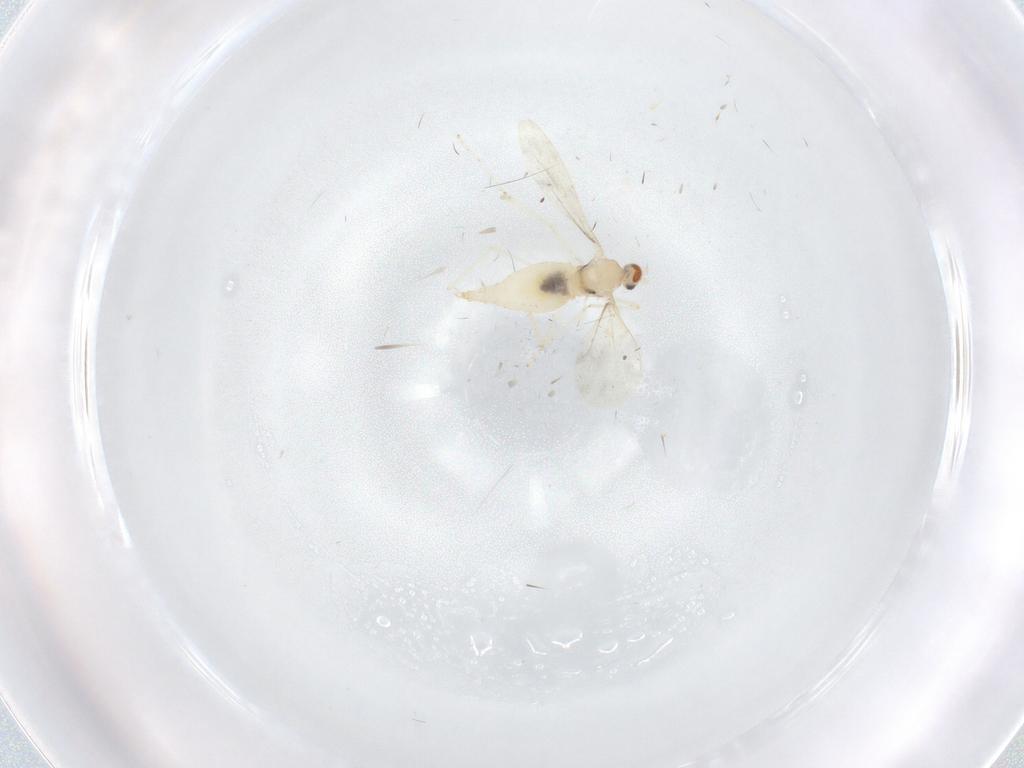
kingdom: Animalia
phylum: Arthropoda
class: Insecta
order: Diptera
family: Cecidomyiidae
